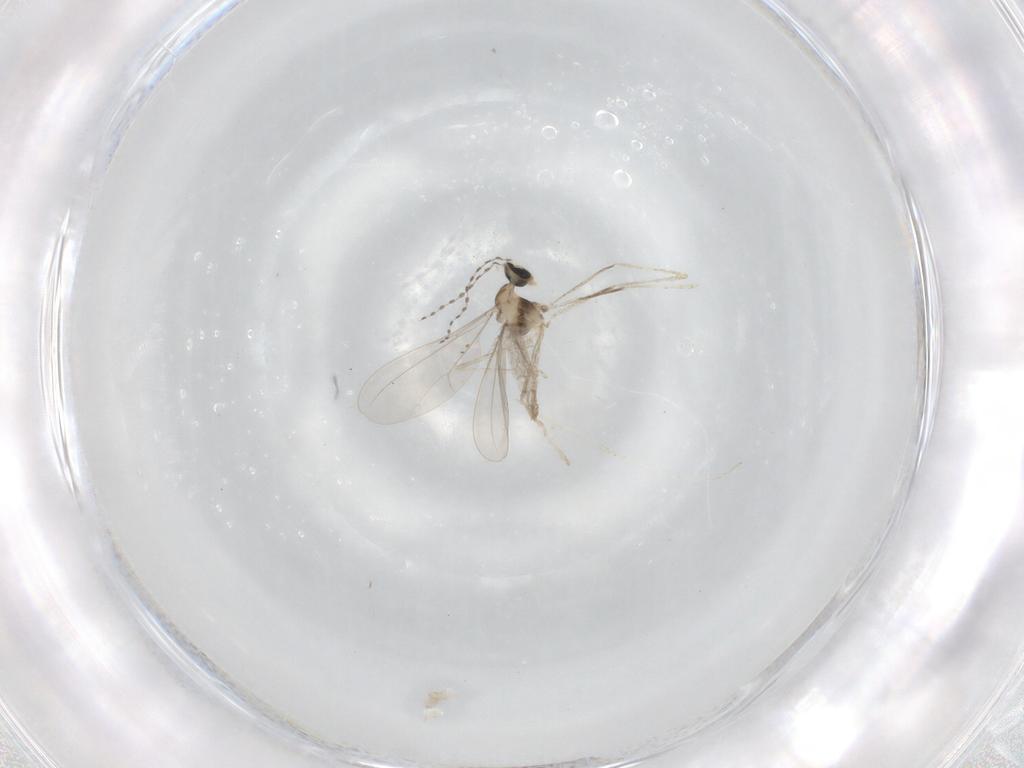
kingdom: Animalia
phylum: Arthropoda
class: Insecta
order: Diptera
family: Cecidomyiidae
